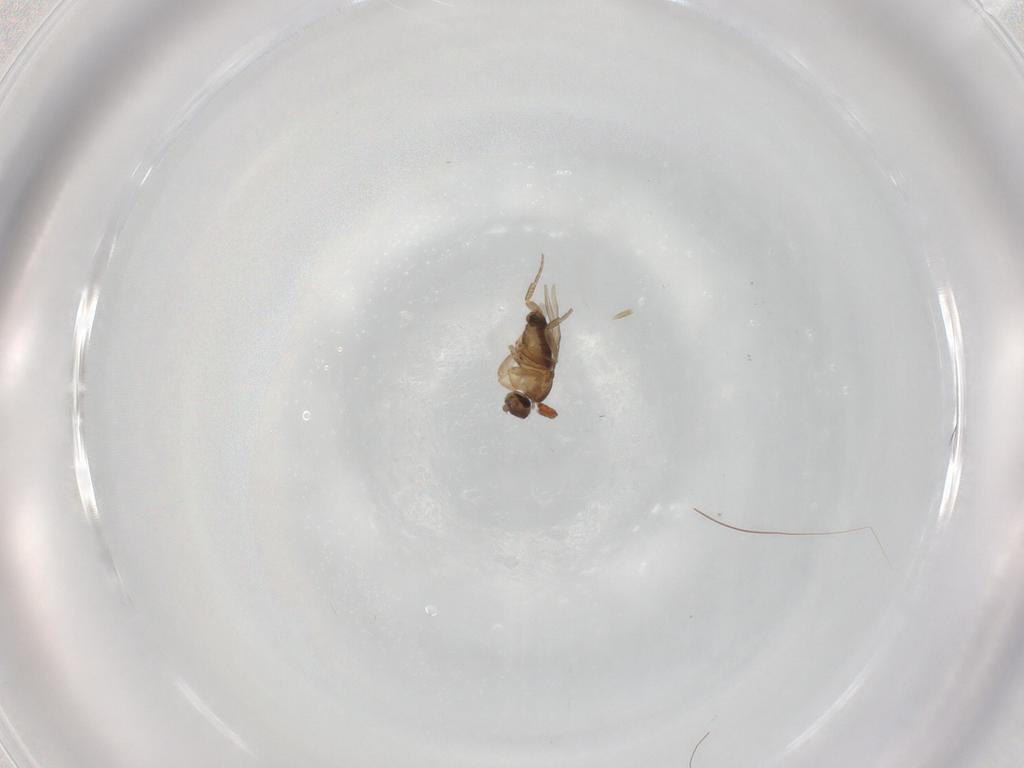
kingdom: Animalia
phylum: Arthropoda
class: Insecta
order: Diptera
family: Phoridae
